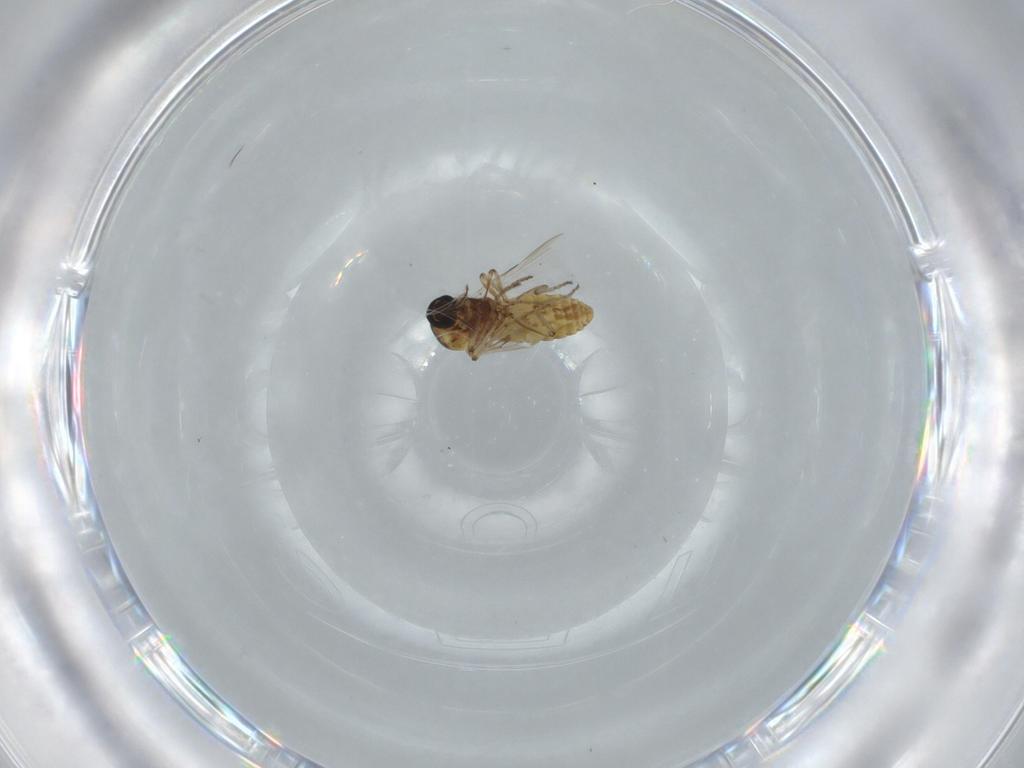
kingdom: Animalia
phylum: Arthropoda
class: Insecta
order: Diptera
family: Ceratopogonidae
